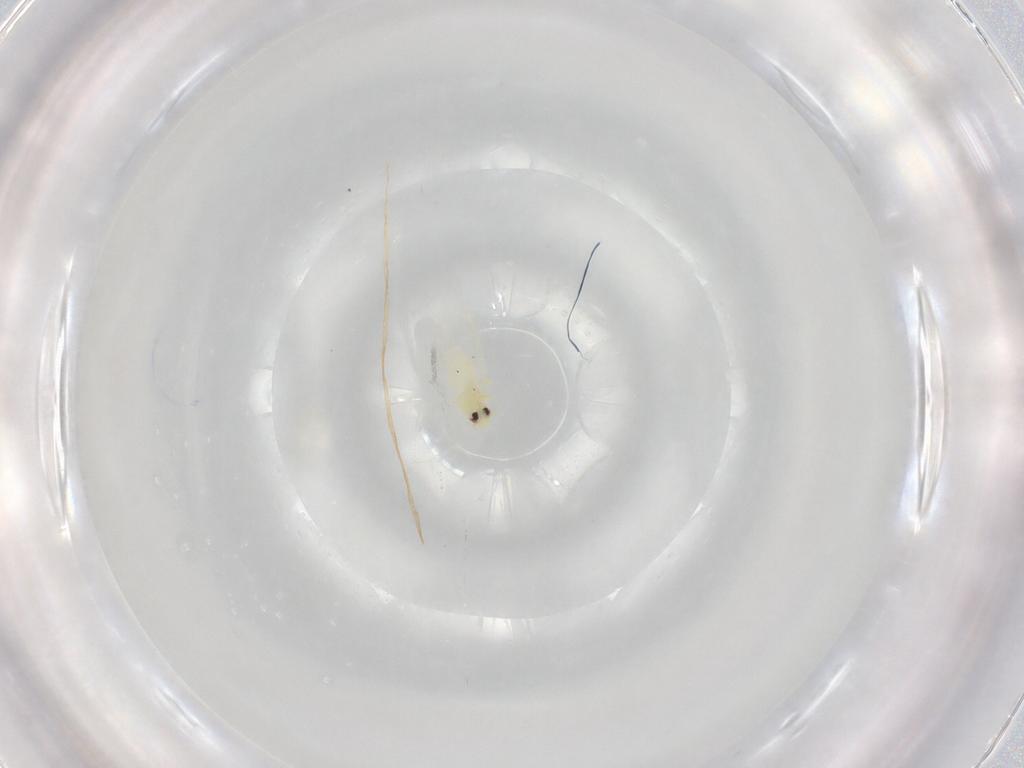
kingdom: Animalia
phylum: Arthropoda
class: Insecta
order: Hemiptera
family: Aleyrodidae
